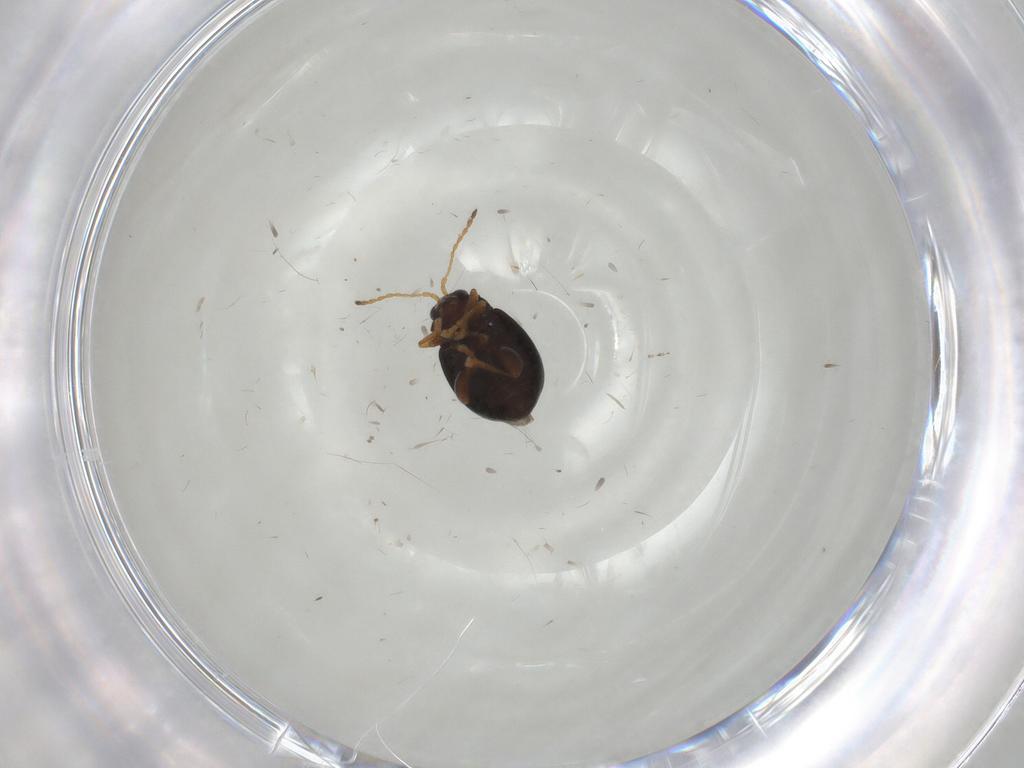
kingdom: Animalia
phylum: Arthropoda
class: Insecta
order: Coleoptera
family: Chrysomelidae
